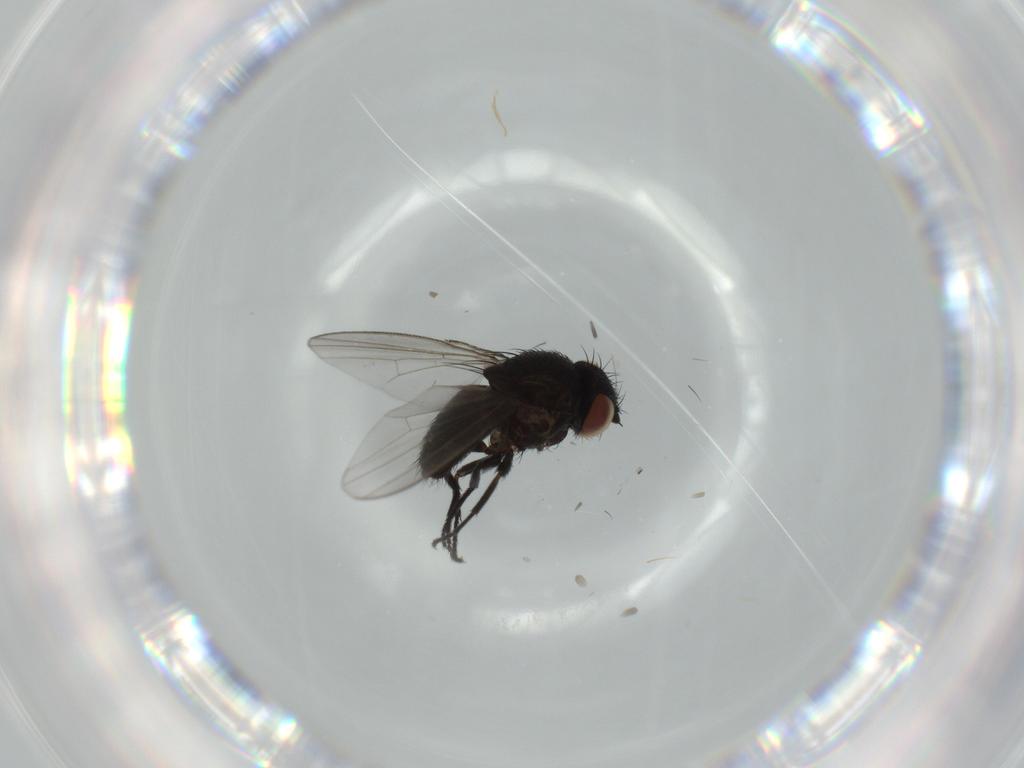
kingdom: Animalia
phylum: Arthropoda
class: Insecta
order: Diptera
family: Milichiidae
